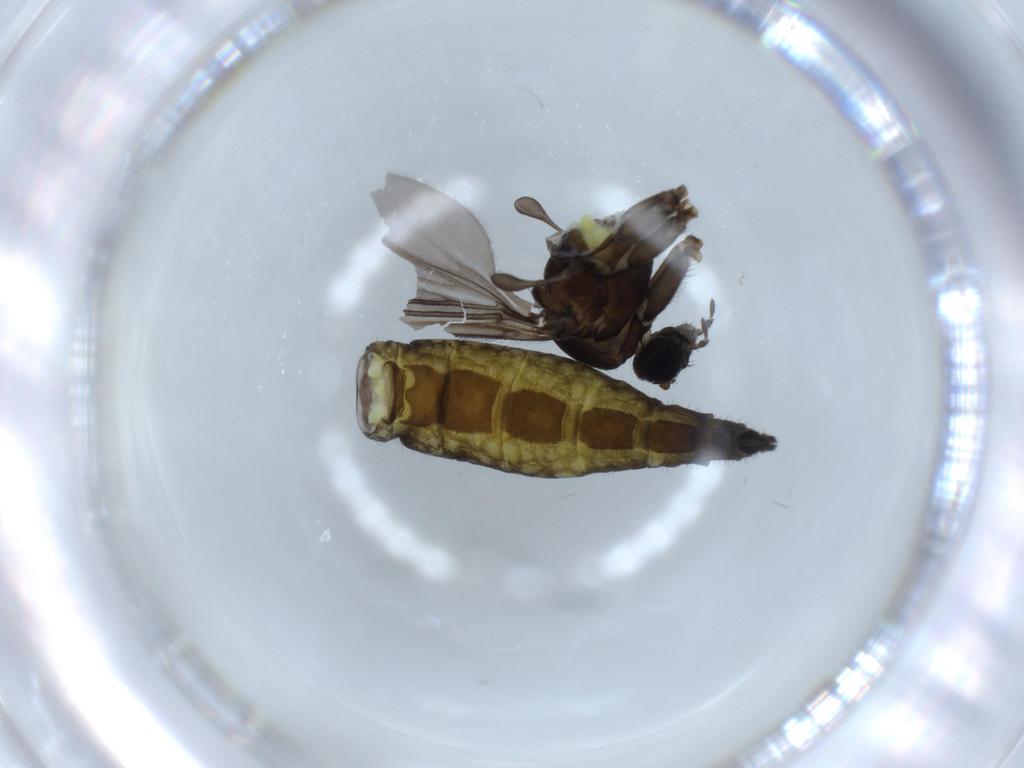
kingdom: Animalia
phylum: Arthropoda
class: Insecta
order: Diptera
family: Sciaridae
